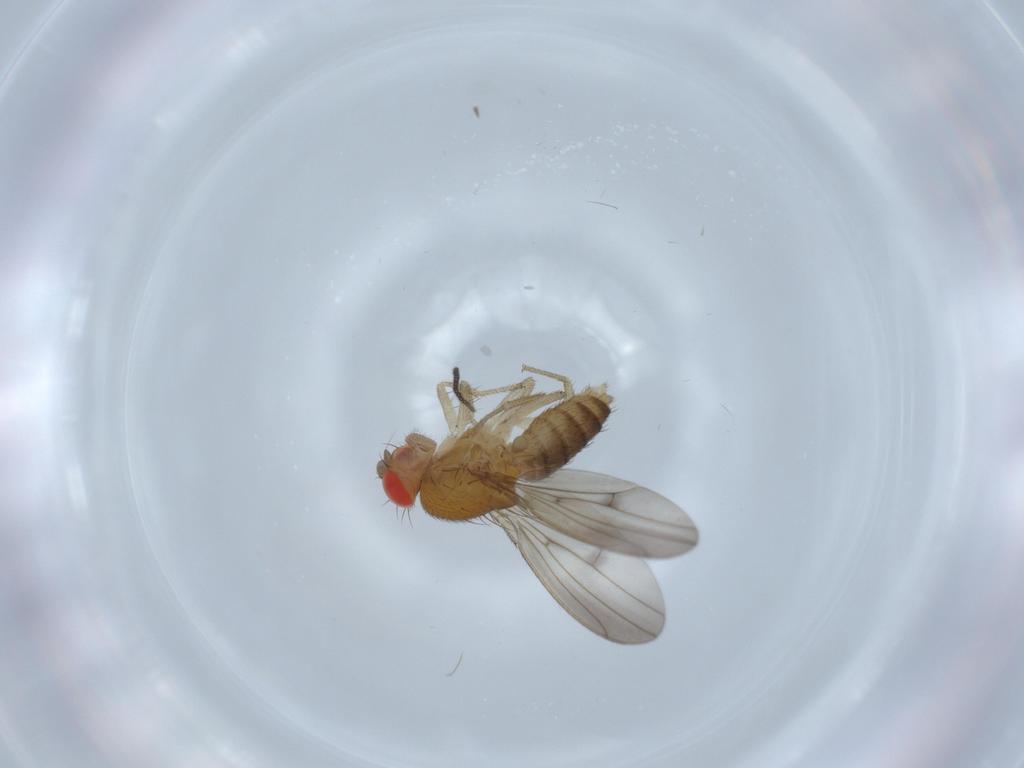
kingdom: Animalia
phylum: Arthropoda
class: Insecta
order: Diptera
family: Drosophilidae
